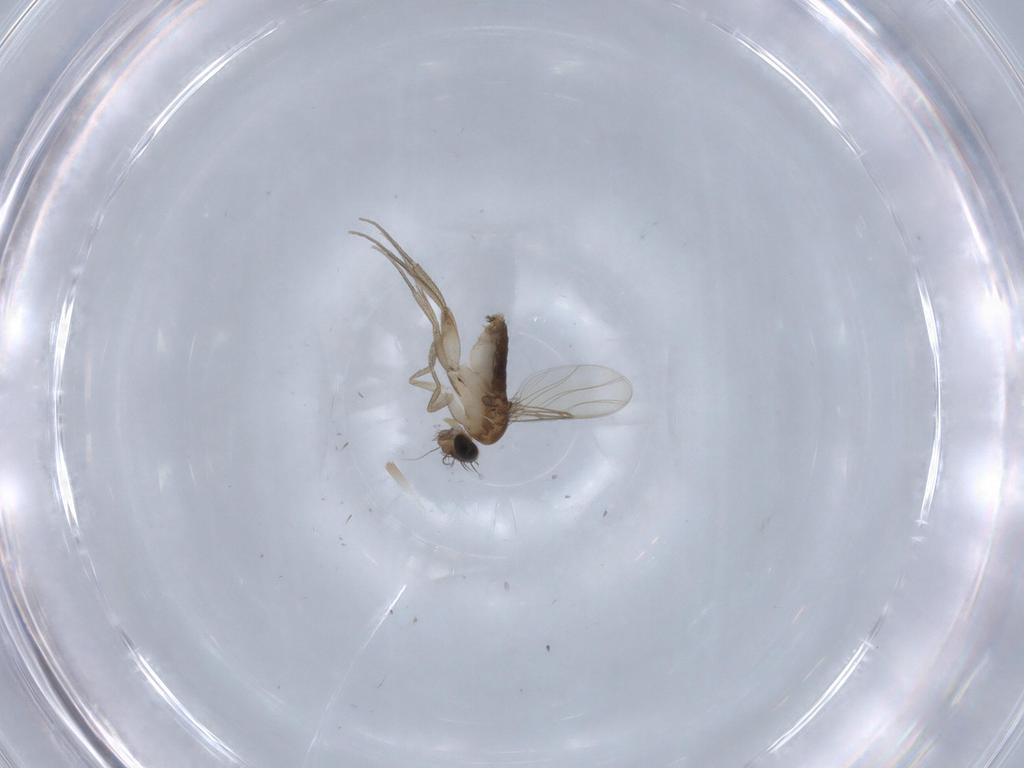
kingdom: Animalia
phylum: Arthropoda
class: Insecta
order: Diptera
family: Phoridae
